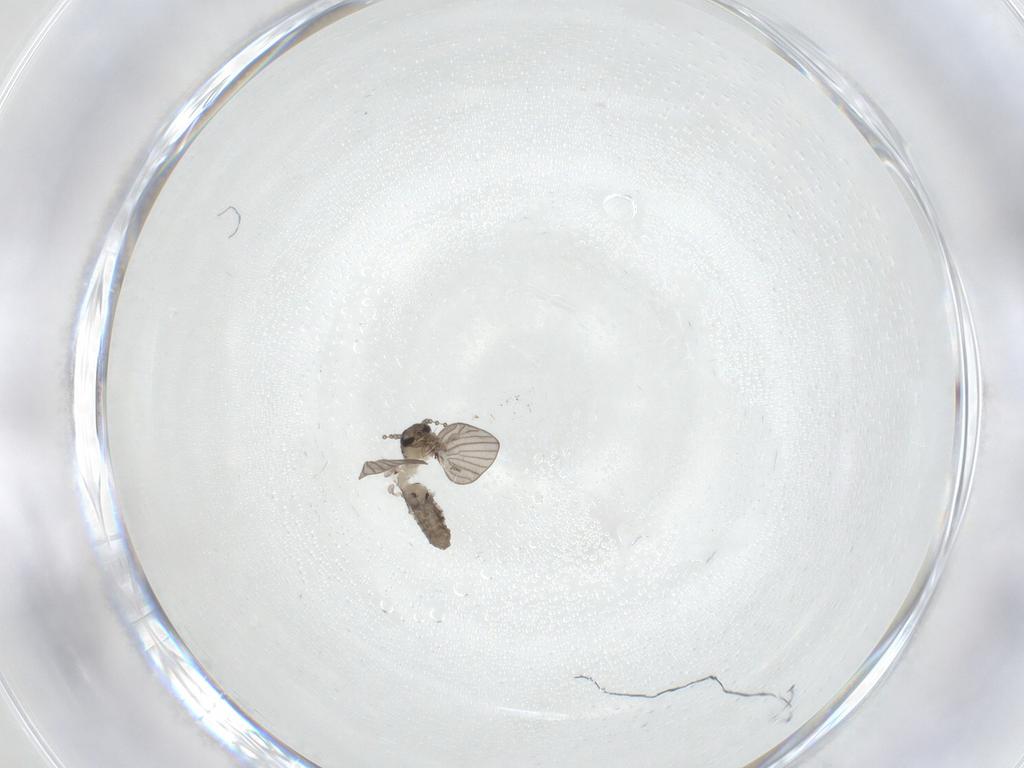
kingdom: Animalia
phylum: Arthropoda
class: Insecta
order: Diptera
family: Psychodidae
